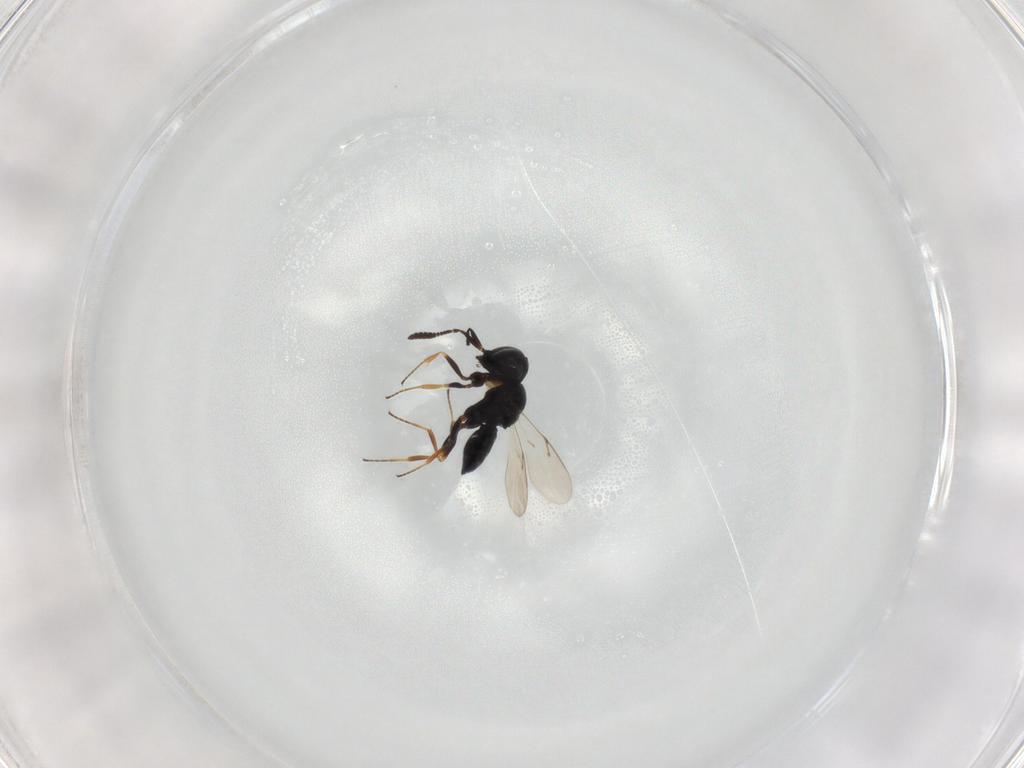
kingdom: Animalia
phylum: Arthropoda
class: Insecta
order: Hymenoptera
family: Scelionidae
